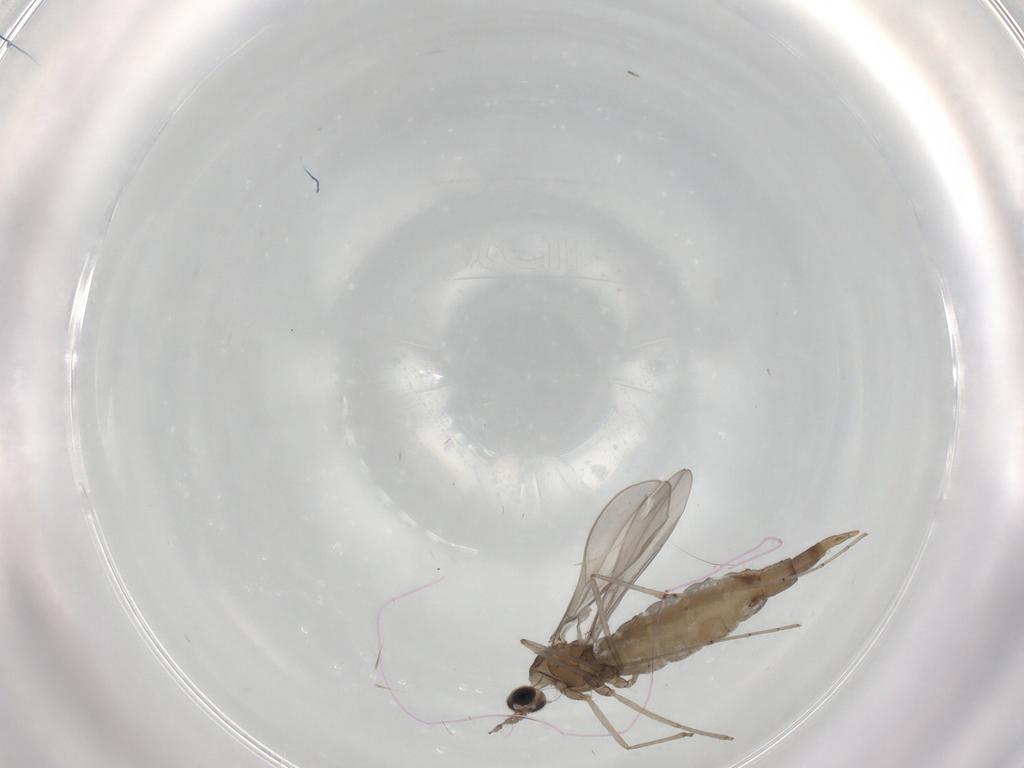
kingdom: Animalia
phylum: Arthropoda
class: Insecta
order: Diptera
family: Cecidomyiidae
